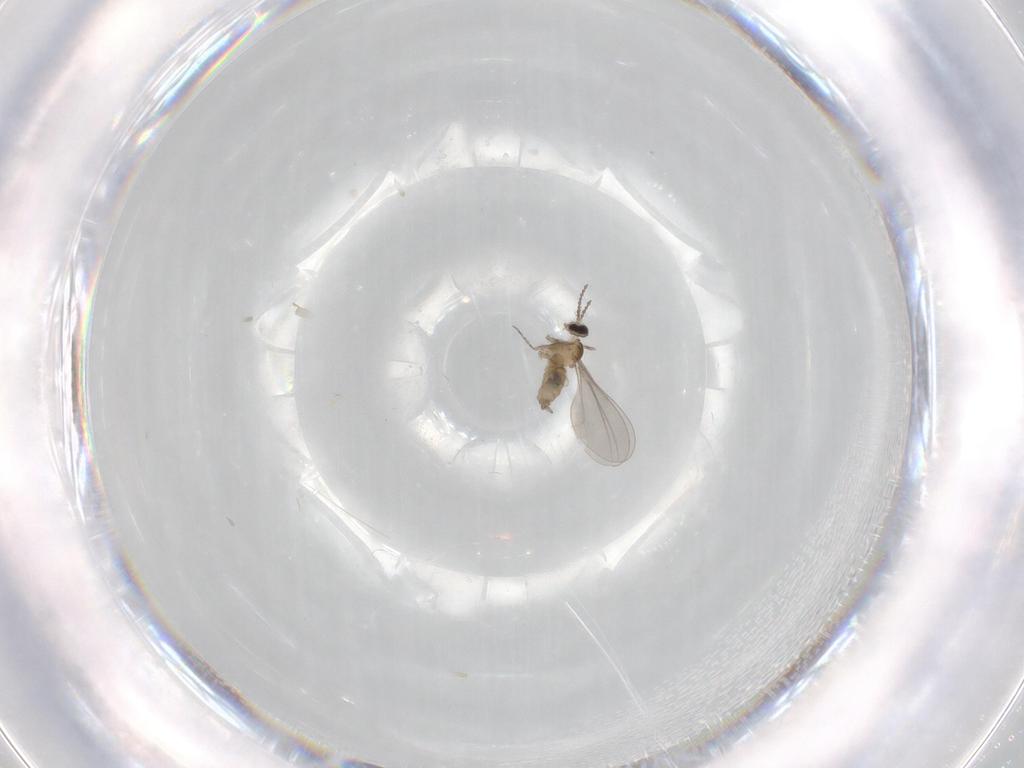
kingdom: Animalia
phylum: Arthropoda
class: Insecta
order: Diptera
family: Cecidomyiidae
